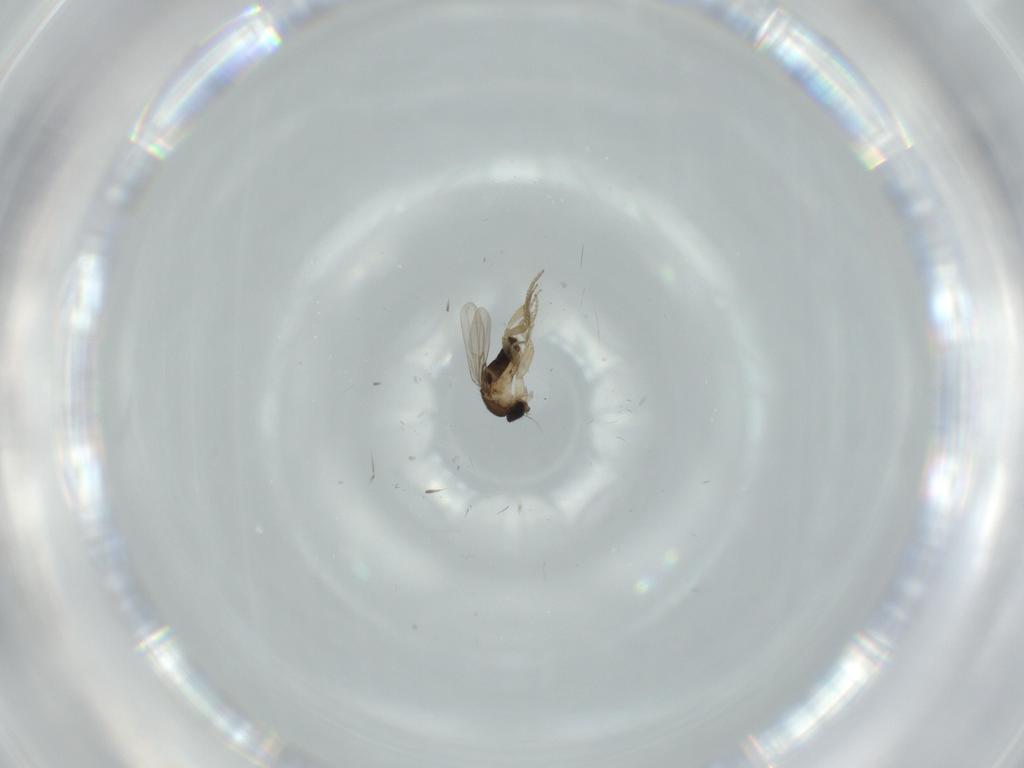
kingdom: Animalia
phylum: Arthropoda
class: Insecta
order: Diptera
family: Phoridae
